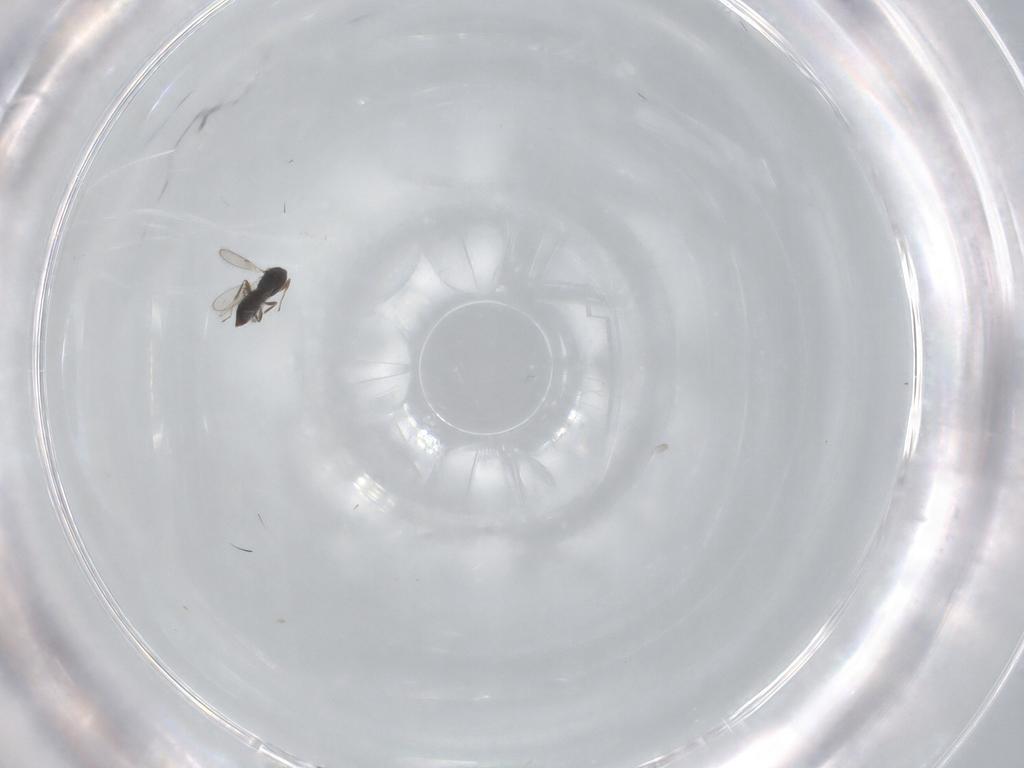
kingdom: Animalia
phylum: Arthropoda
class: Insecta
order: Hymenoptera
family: Scelionidae
